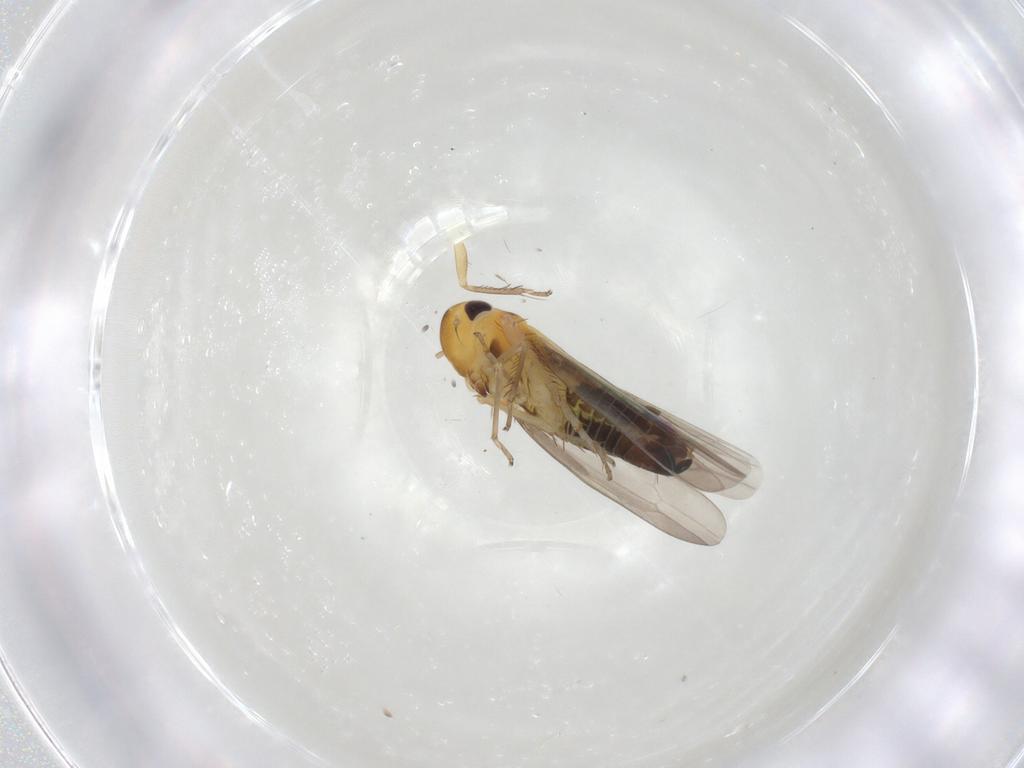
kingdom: Animalia
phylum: Arthropoda
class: Insecta
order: Hemiptera
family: Cicadellidae
